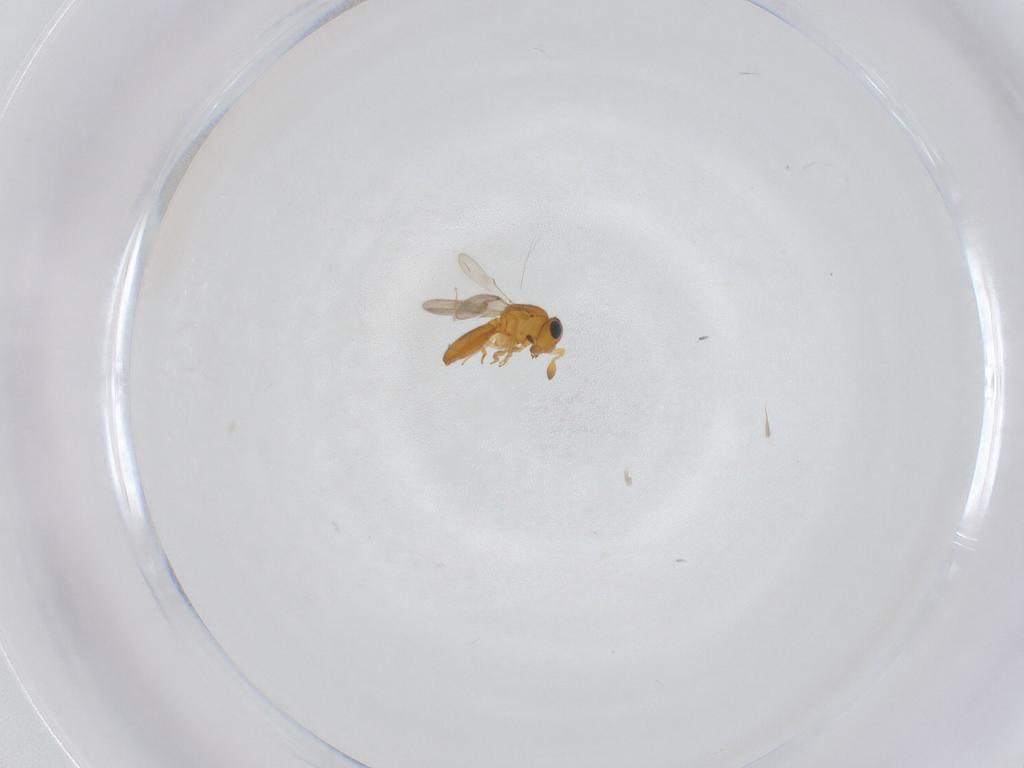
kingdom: Animalia
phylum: Arthropoda
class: Insecta
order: Hymenoptera
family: Scelionidae
